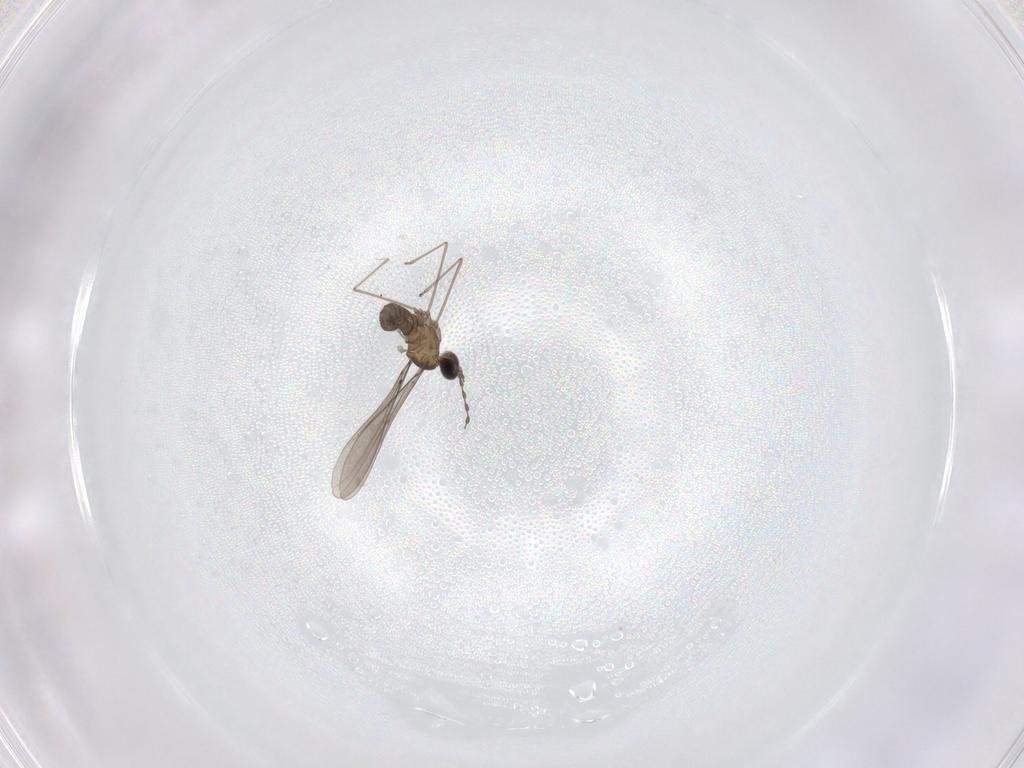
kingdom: Animalia
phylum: Arthropoda
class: Insecta
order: Diptera
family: Cecidomyiidae
